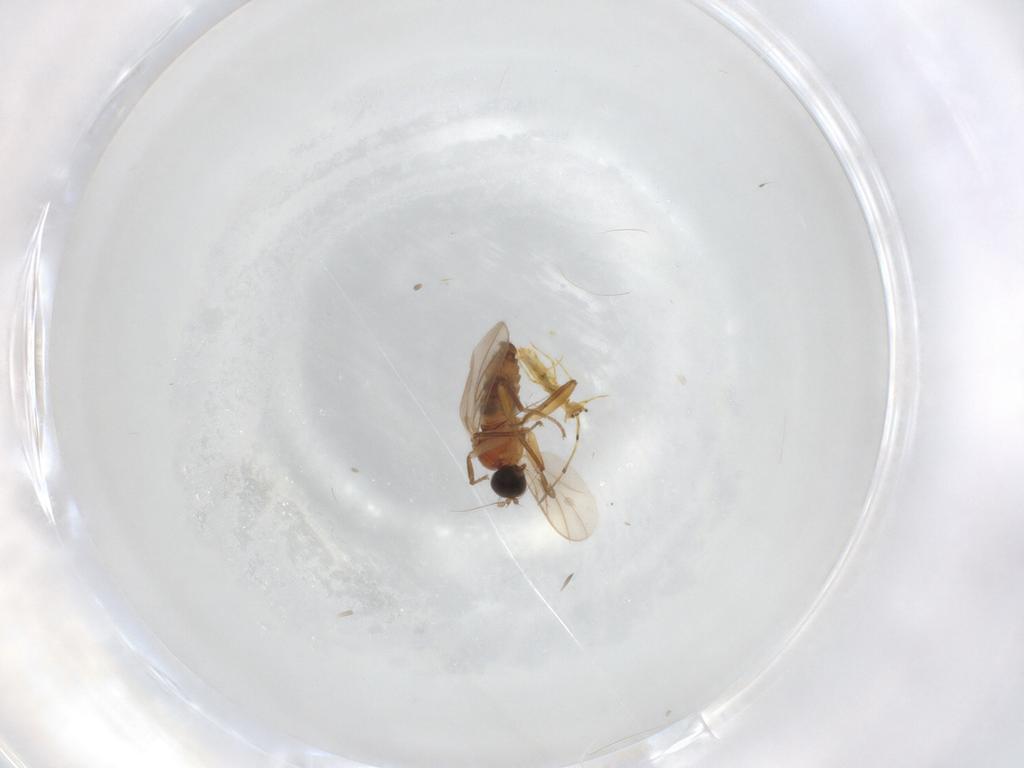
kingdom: Animalia
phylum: Arthropoda
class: Insecta
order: Diptera
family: Hybotidae
